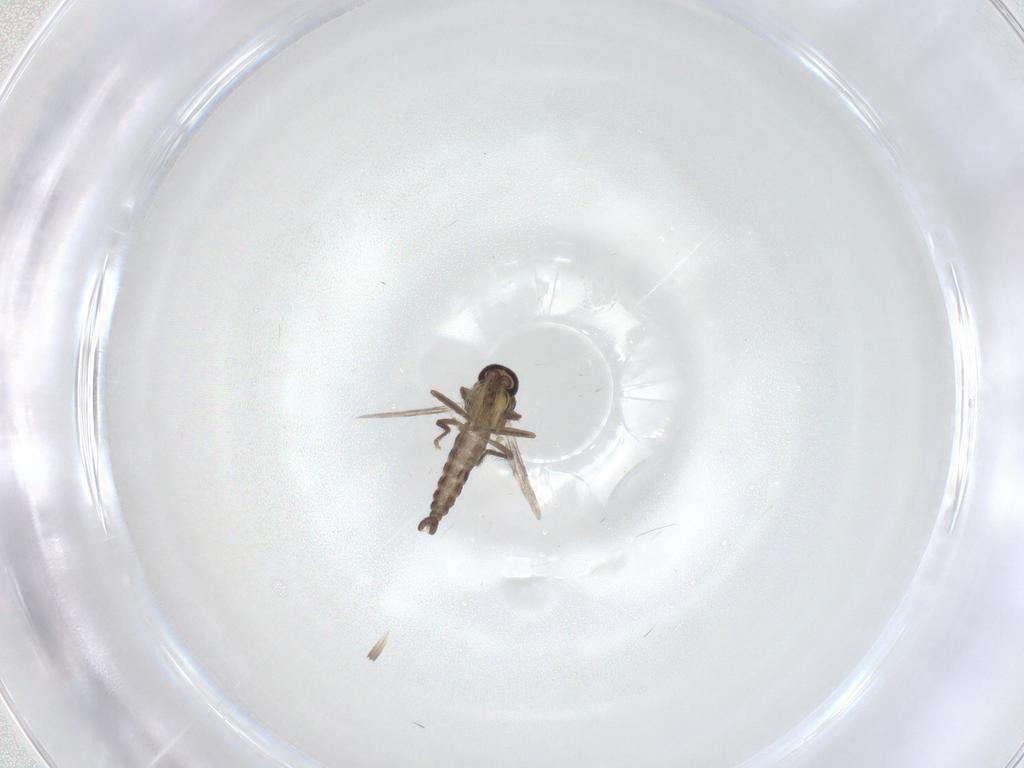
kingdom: Animalia
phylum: Arthropoda
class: Insecta
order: Diptera
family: Ceratopogonidae
